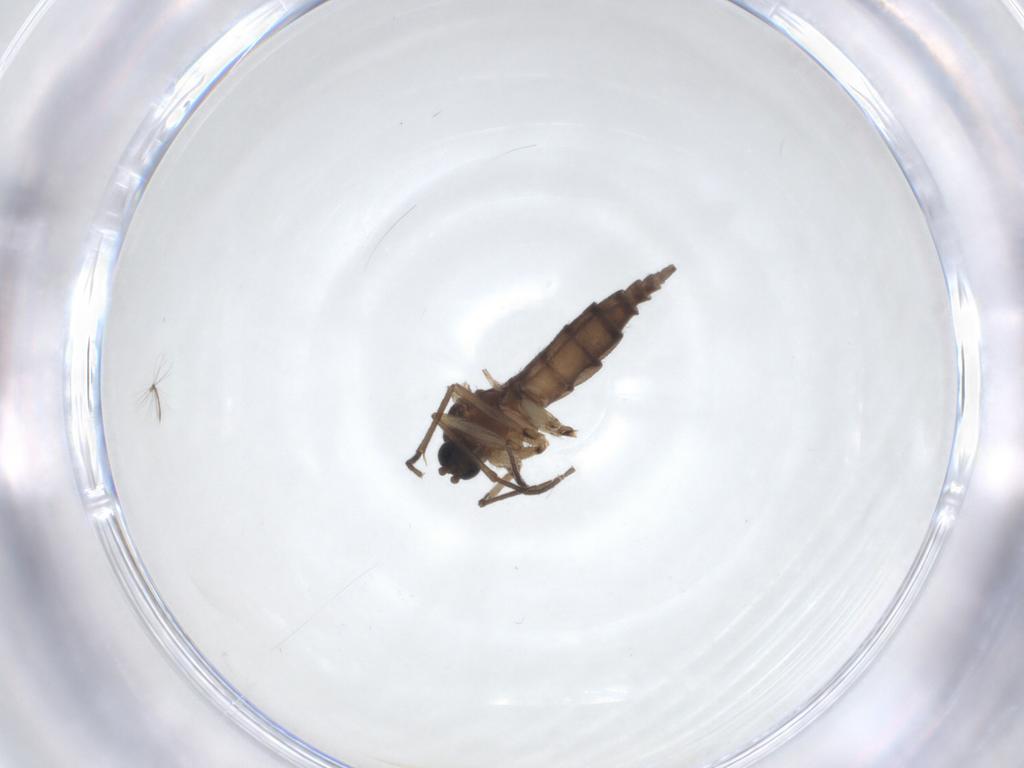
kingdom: Animalia
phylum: Arthropoda
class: Insecta
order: Diptera
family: Sciaridae
